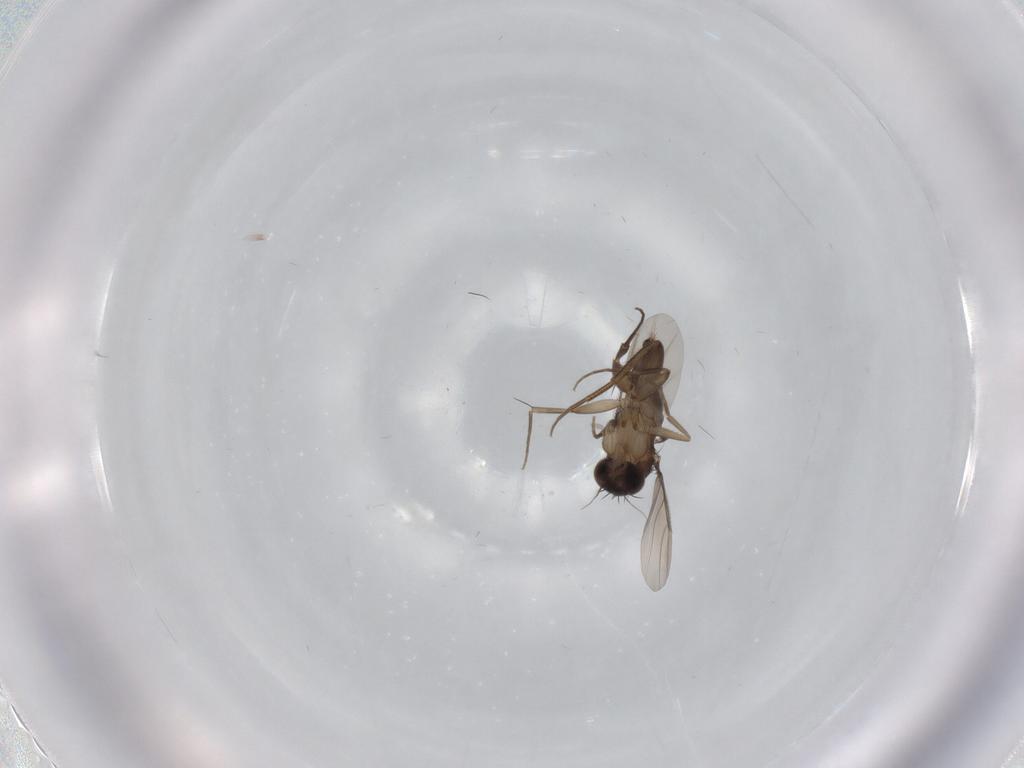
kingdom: Animalia
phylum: Arthropoda
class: Insecta
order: Diptera
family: Phoridae
